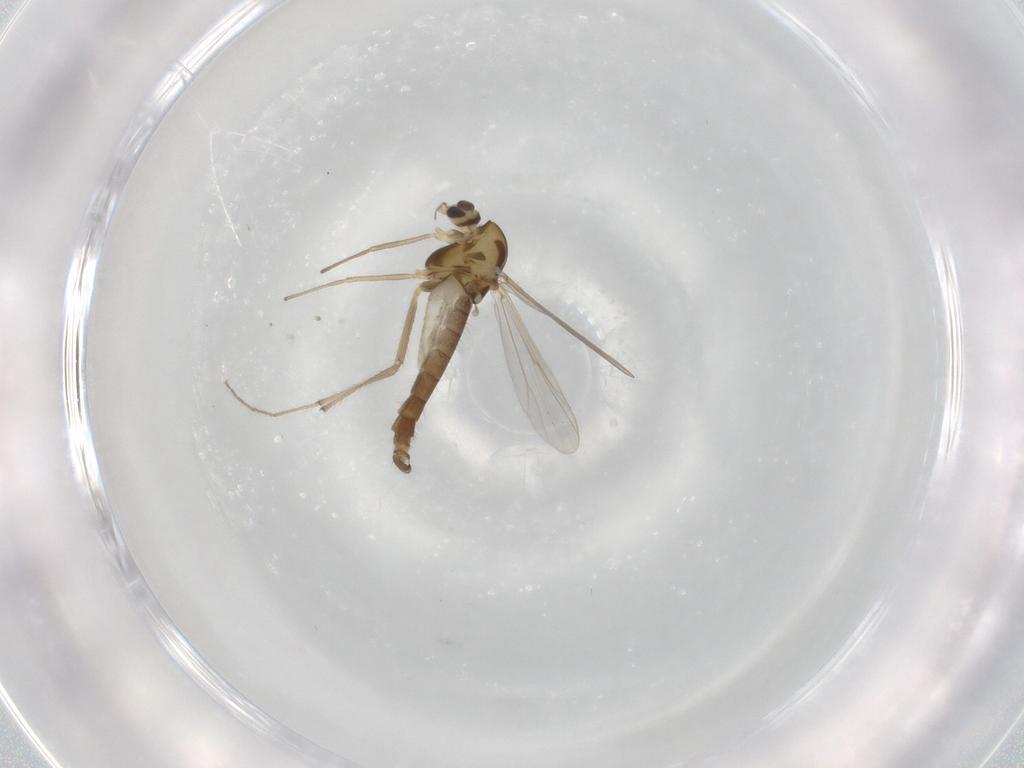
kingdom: Animalia
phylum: Arthropoda
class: Insecta
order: Diptera
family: Chironomidae
